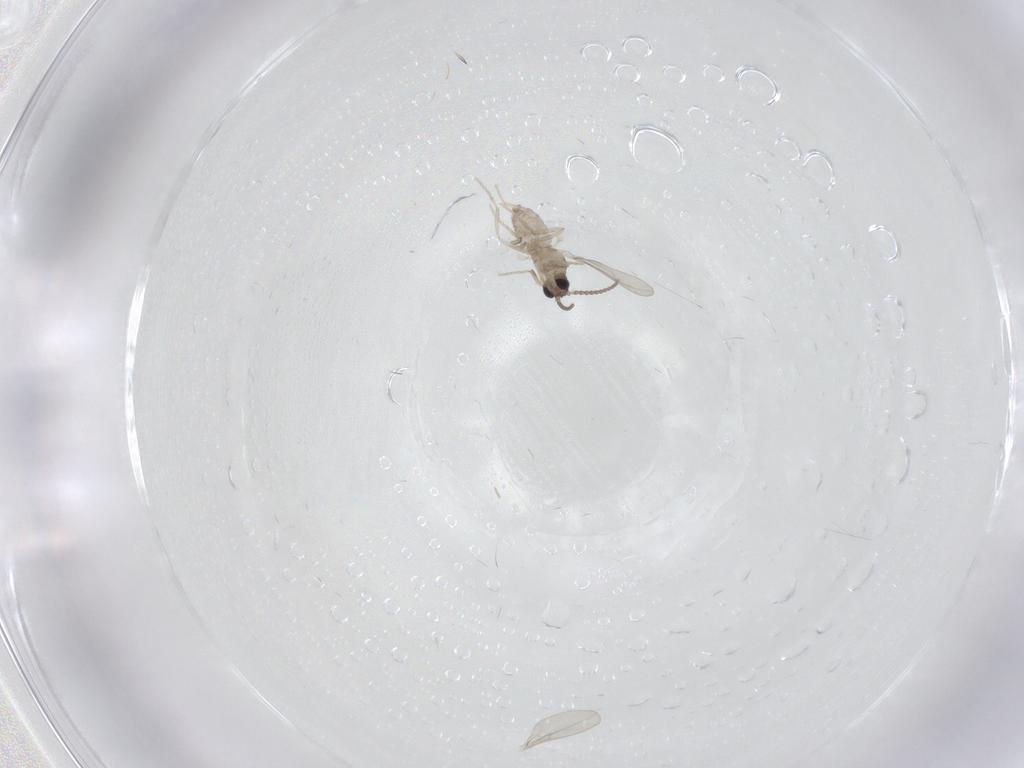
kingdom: Animalia
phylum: Arthropoda
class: Insecta
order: Diptera
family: Cecidomyiidae
